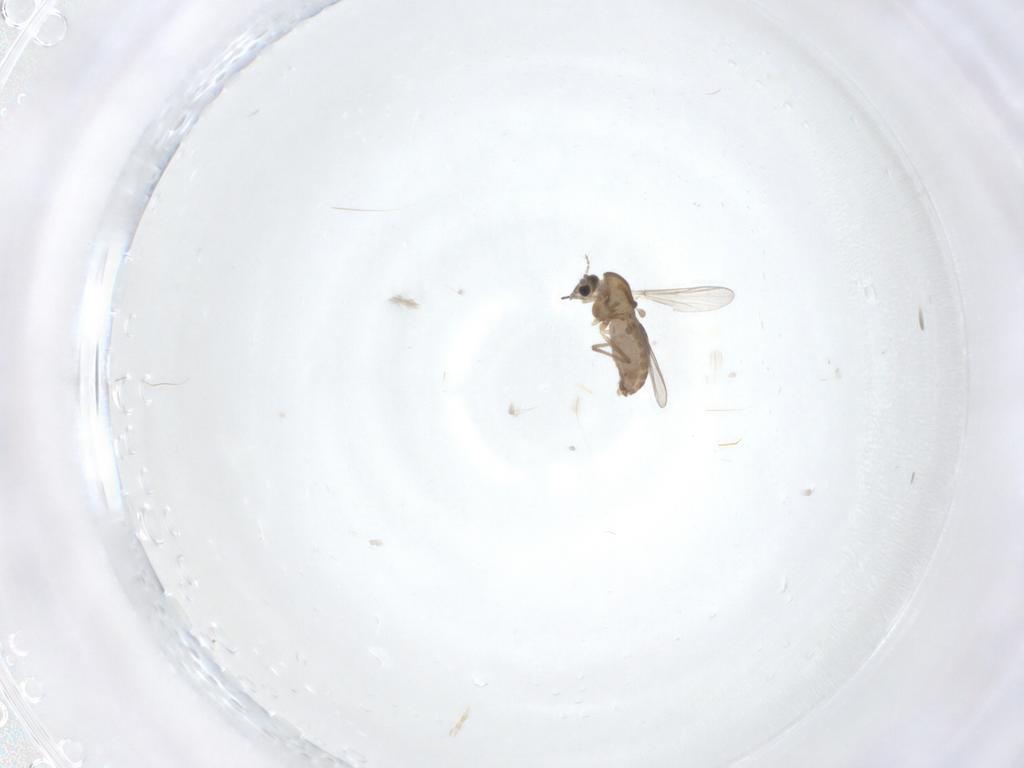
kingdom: Animalia
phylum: Arthropoda
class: Insecta
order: Diptera
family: Chironomidae
